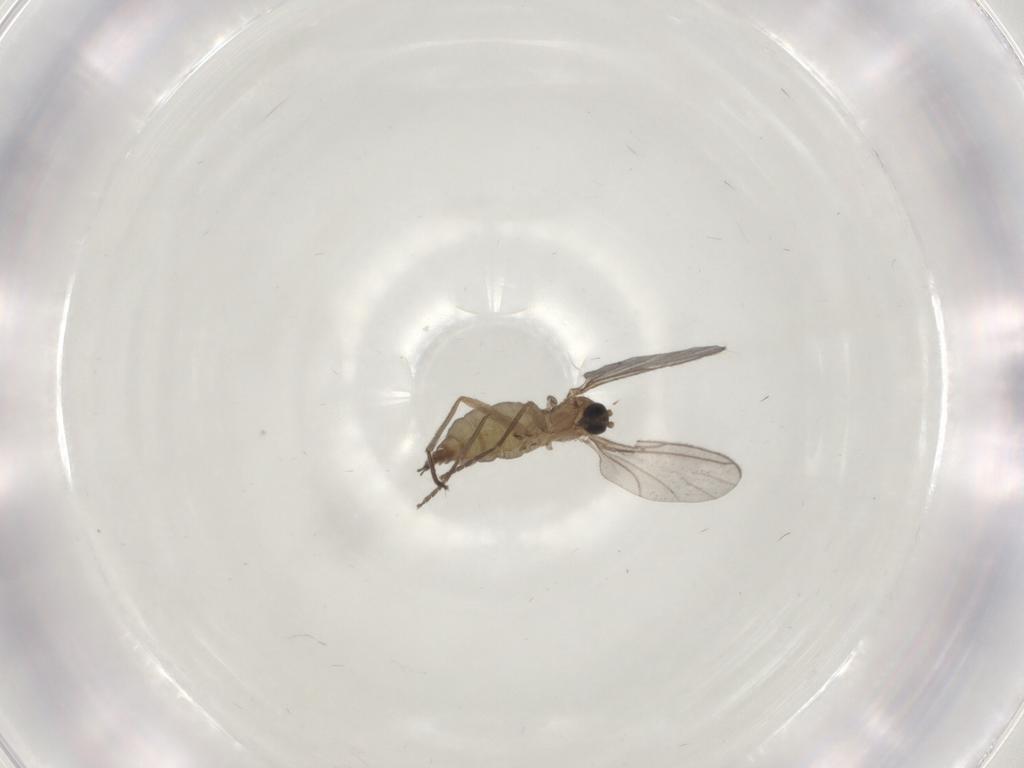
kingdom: Animalia
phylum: Arthropoda
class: Insecta
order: Diptera
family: Sciaridae
